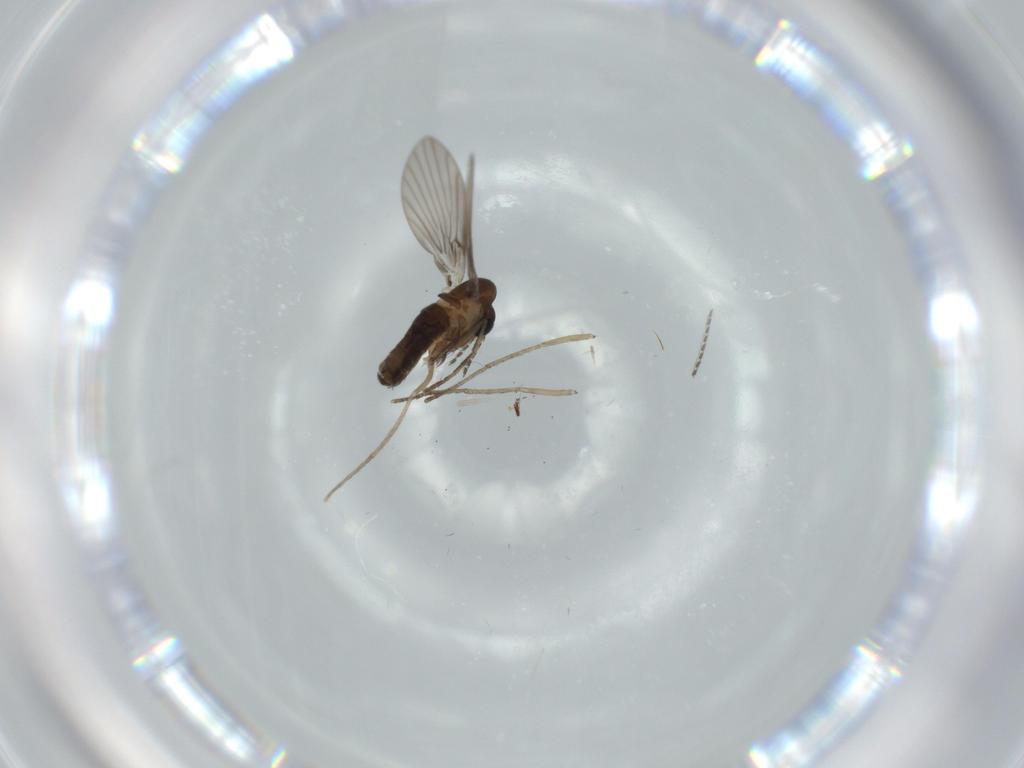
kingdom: Animalia
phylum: Arthropoda
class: Insecta
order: Diptera
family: Psychodidae
